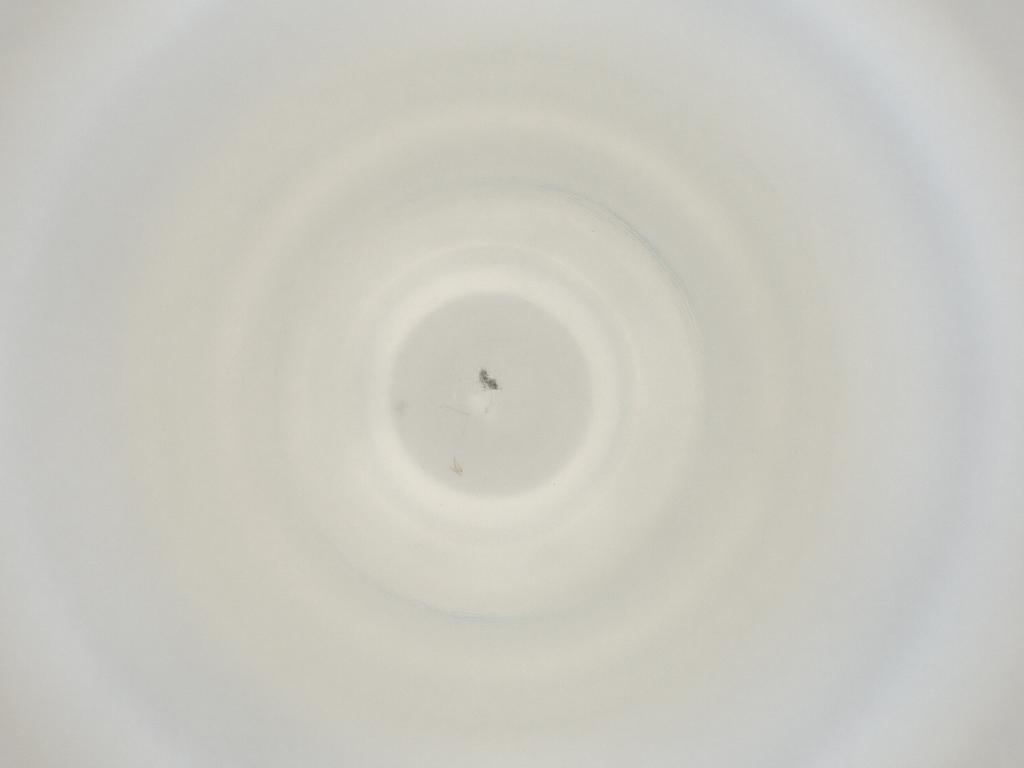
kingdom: Animalia
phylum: Arthropoda
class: Insecta
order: Diptera
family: Cecidomyiidae
